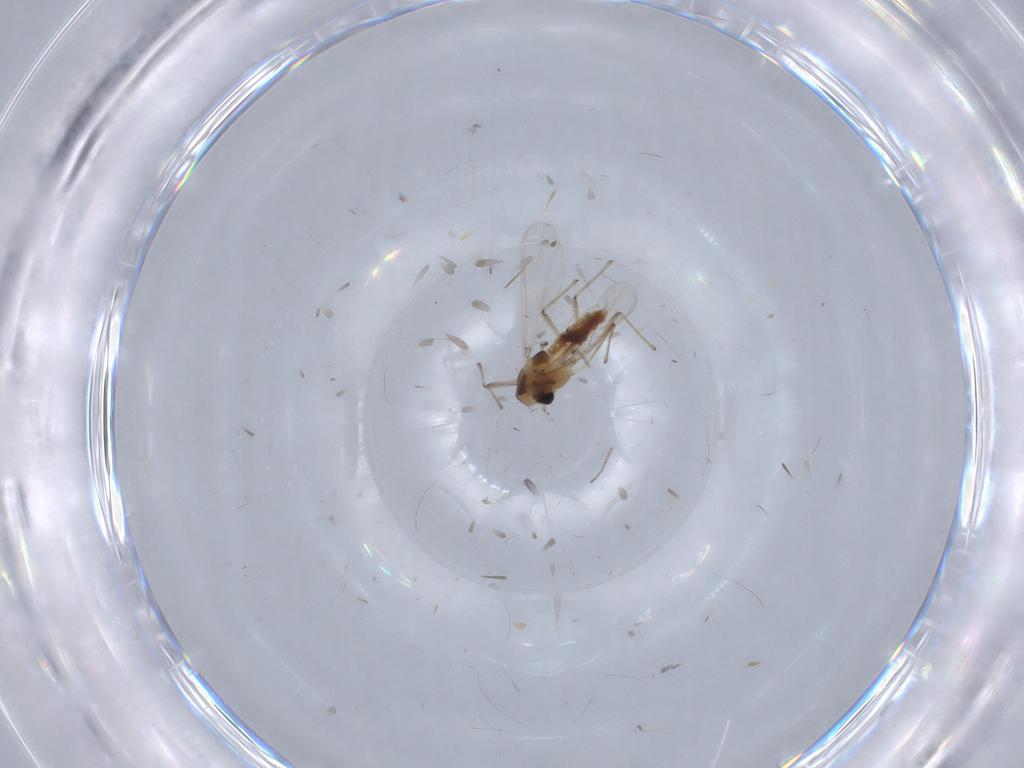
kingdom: Animalia
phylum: Arthropoda
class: Insecta
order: Diptera
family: Chironomidae
